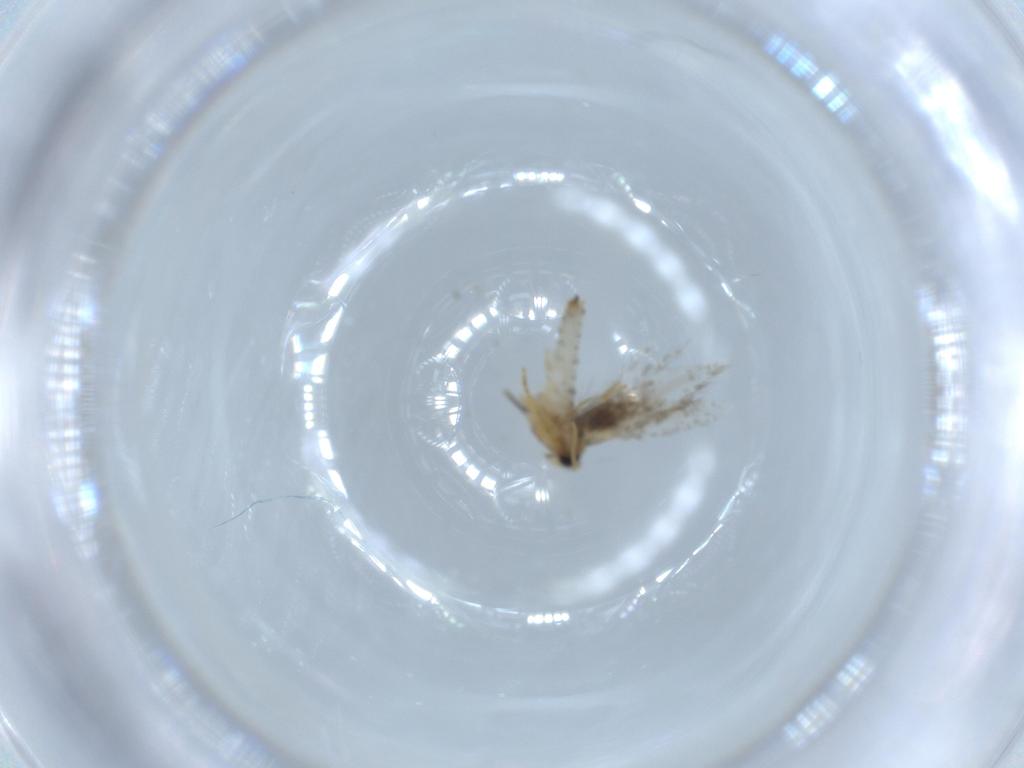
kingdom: Animalia
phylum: Arthropoda
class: Insecta
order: Lepidoptera
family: Copromorphidae
